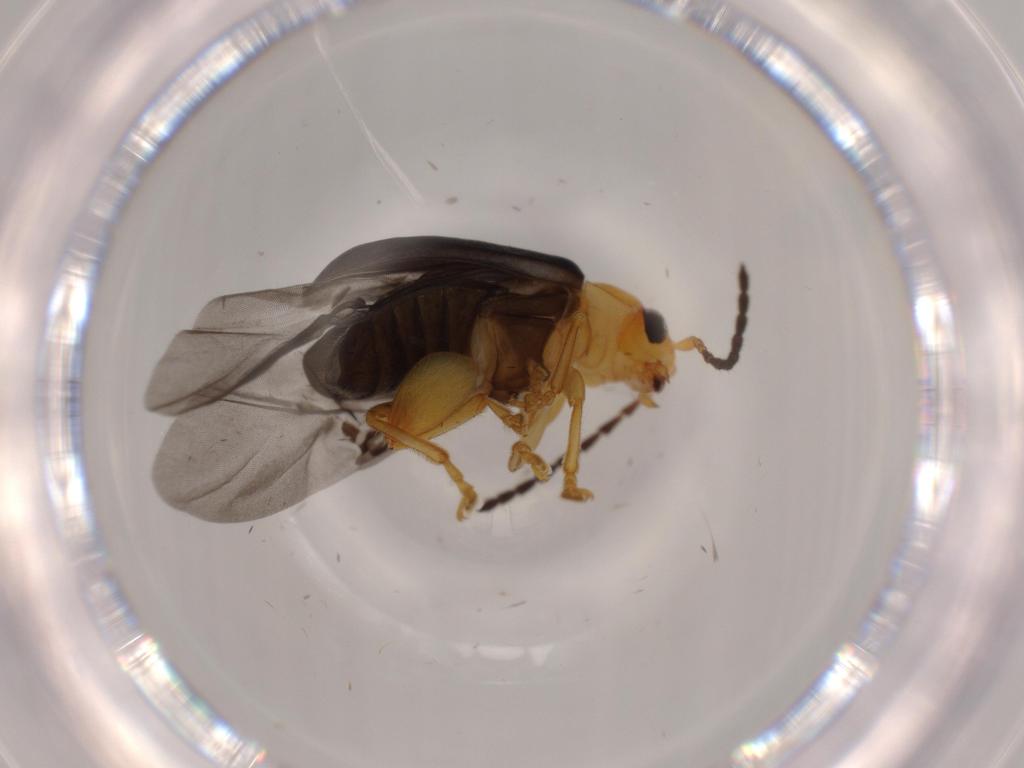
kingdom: Animalia
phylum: Arthropoda
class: Insecta
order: Coleoptera
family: Chrysomelidae
